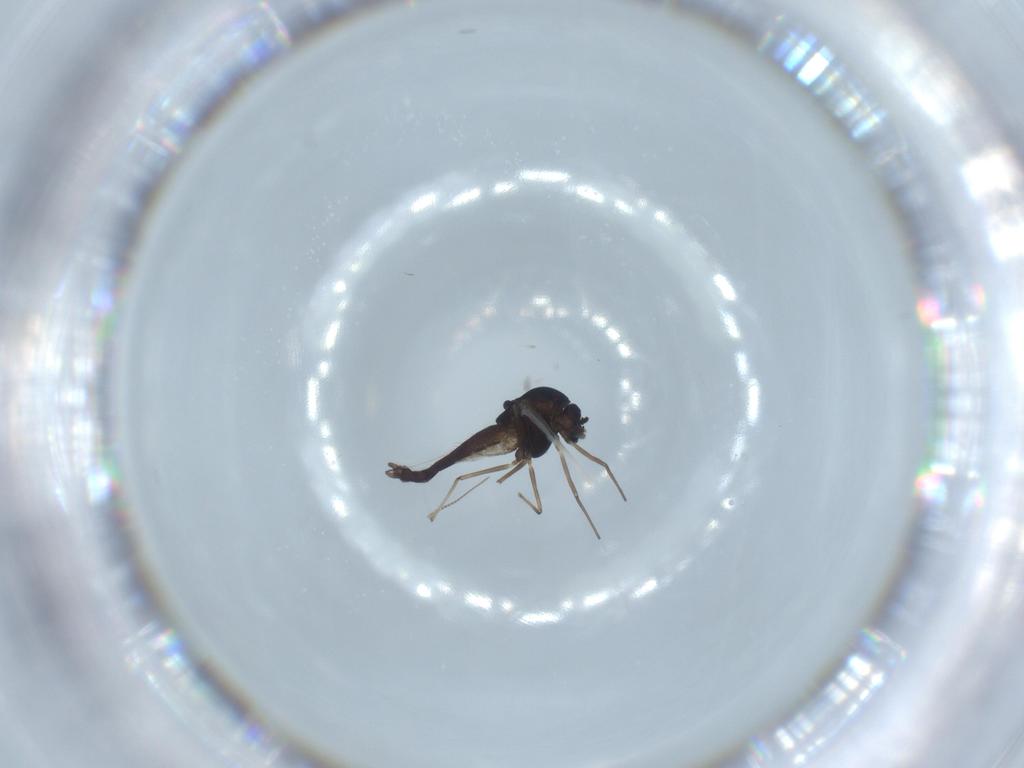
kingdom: Animalia
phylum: Arthropoda
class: Insecta
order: Diptera
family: Chironomidae
